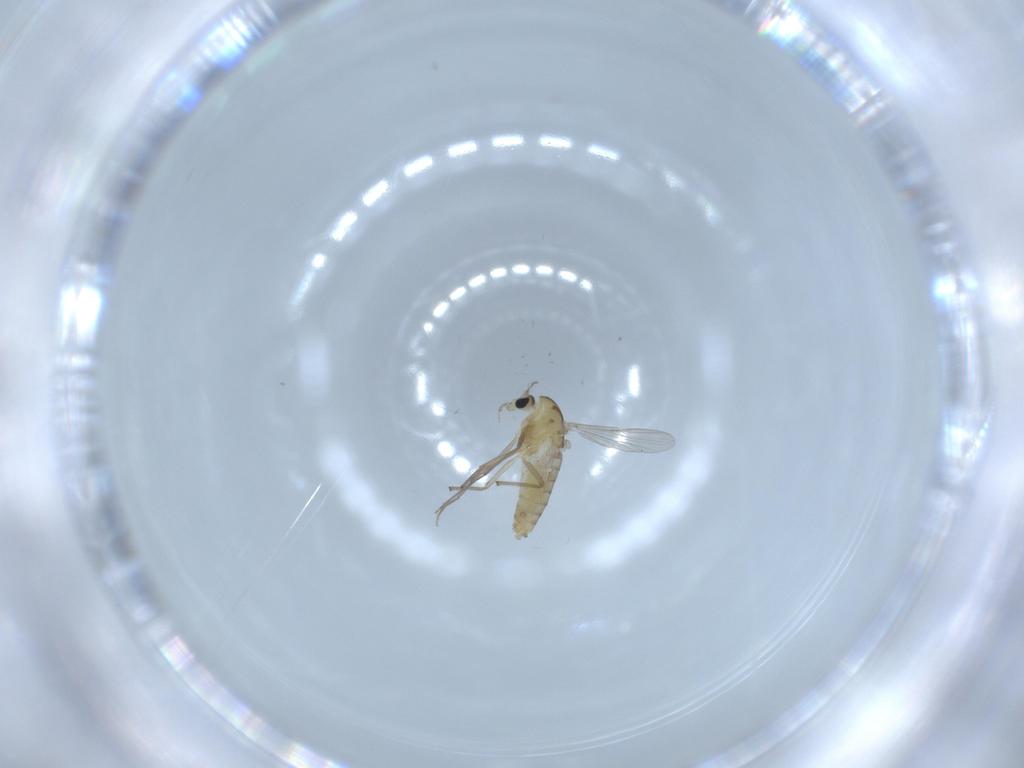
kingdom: Animalia
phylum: Arthropoda
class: Insecta
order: Diptera
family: Chironomidae
